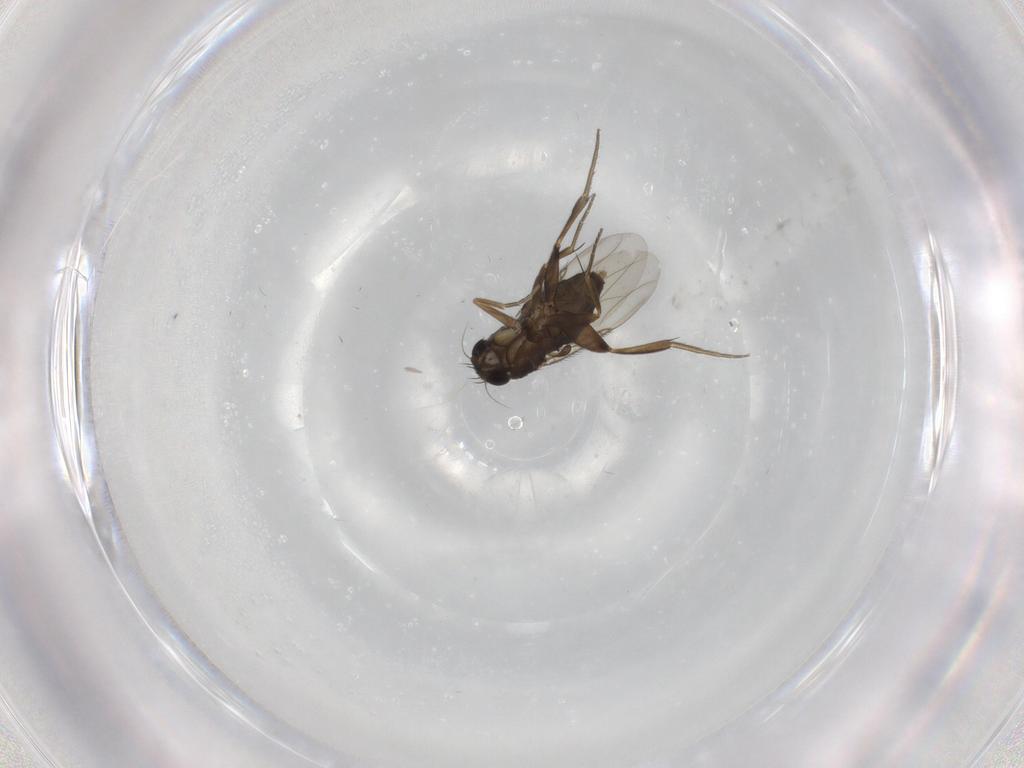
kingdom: Animalia
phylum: Arthropoda
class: Insecta
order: Diptera
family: Phoridae
